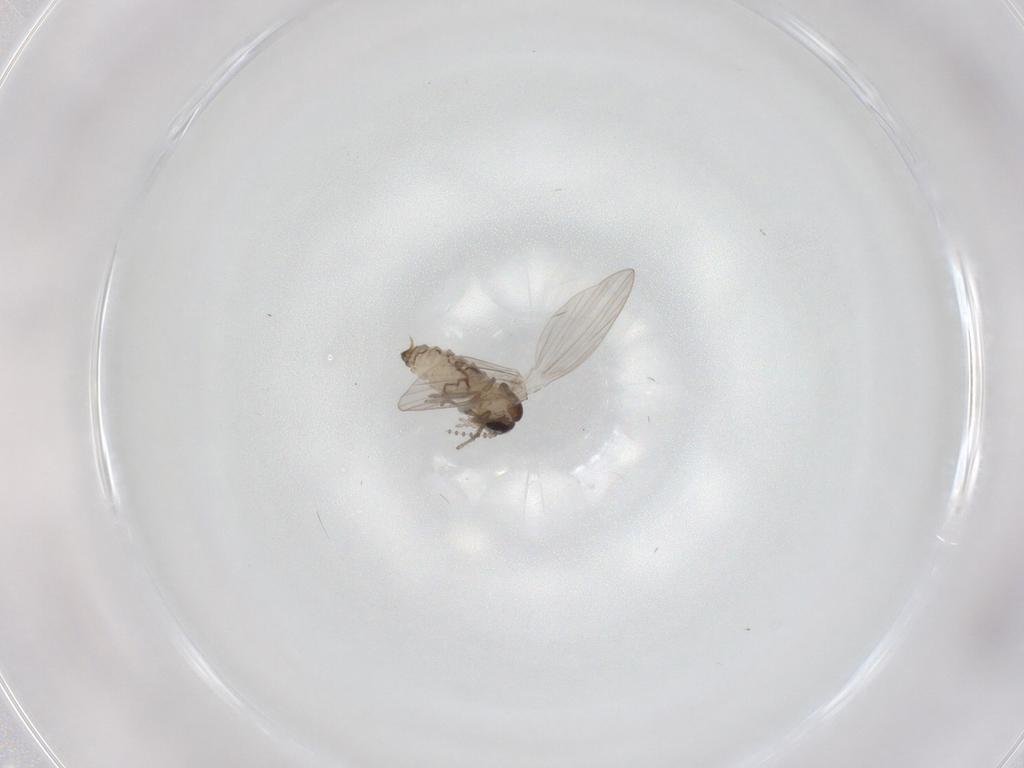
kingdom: Animalia
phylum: Arthropoda
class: Insecta
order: Diptera
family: Psychodidae
